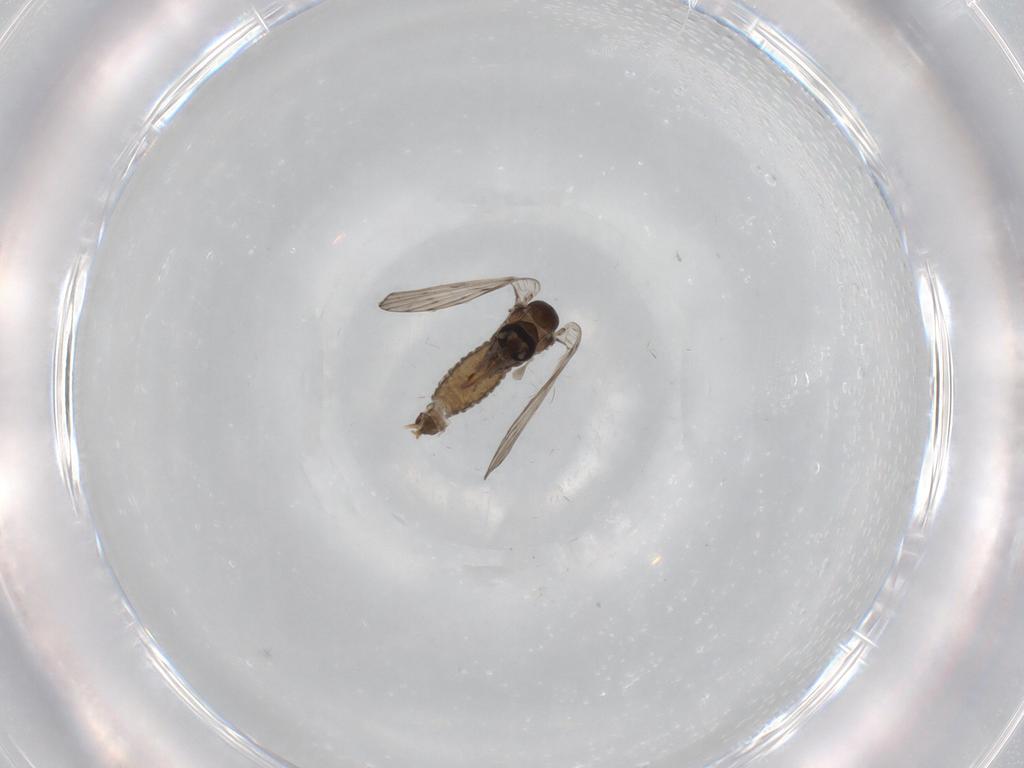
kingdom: Animalia
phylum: Arthropoda
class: Insecta
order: Diptera
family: Psychodidae
